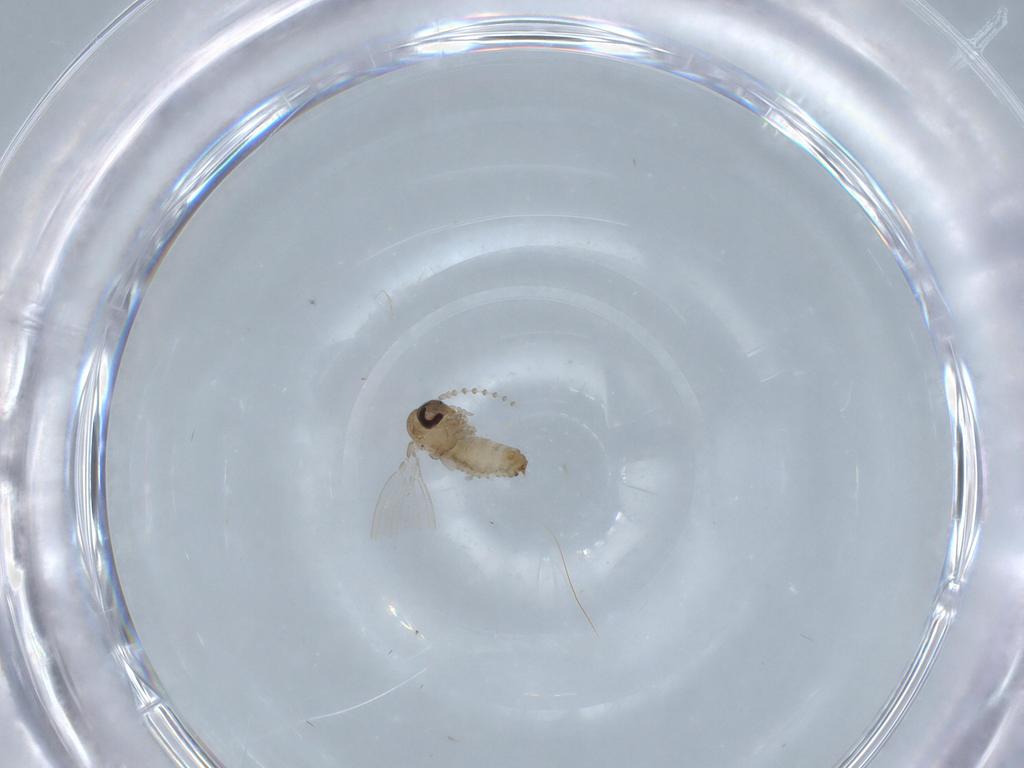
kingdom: Animalia
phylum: Arthropoda
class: Insecta
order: Diptera
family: Psychodidae
